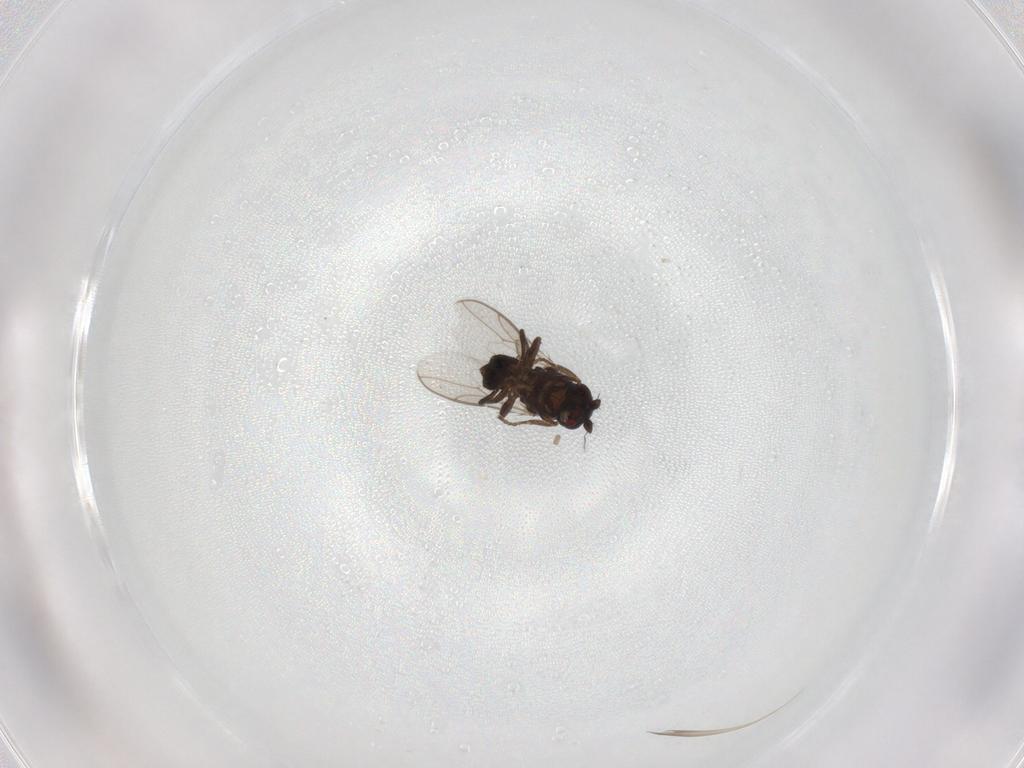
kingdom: Animalia
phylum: Arthropoda
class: Insecta
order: Diptera
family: Sphaeroceridae
